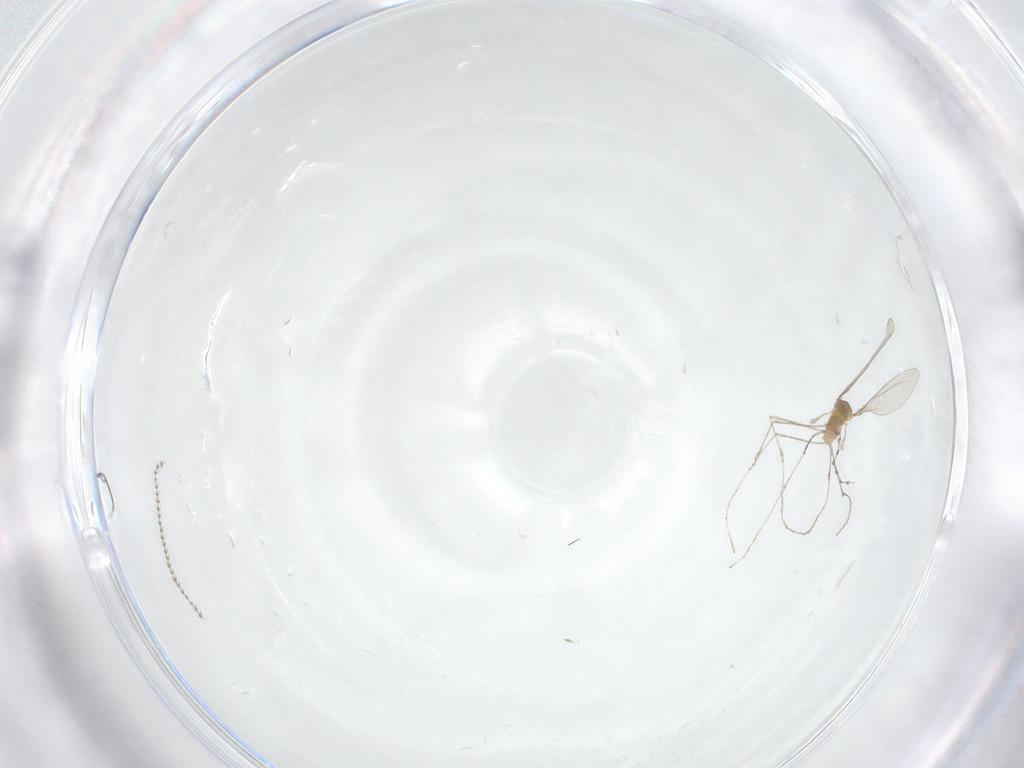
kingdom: Animalia
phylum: Arthropoda
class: Insecta
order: Diptera
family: Cecidomyiidae
